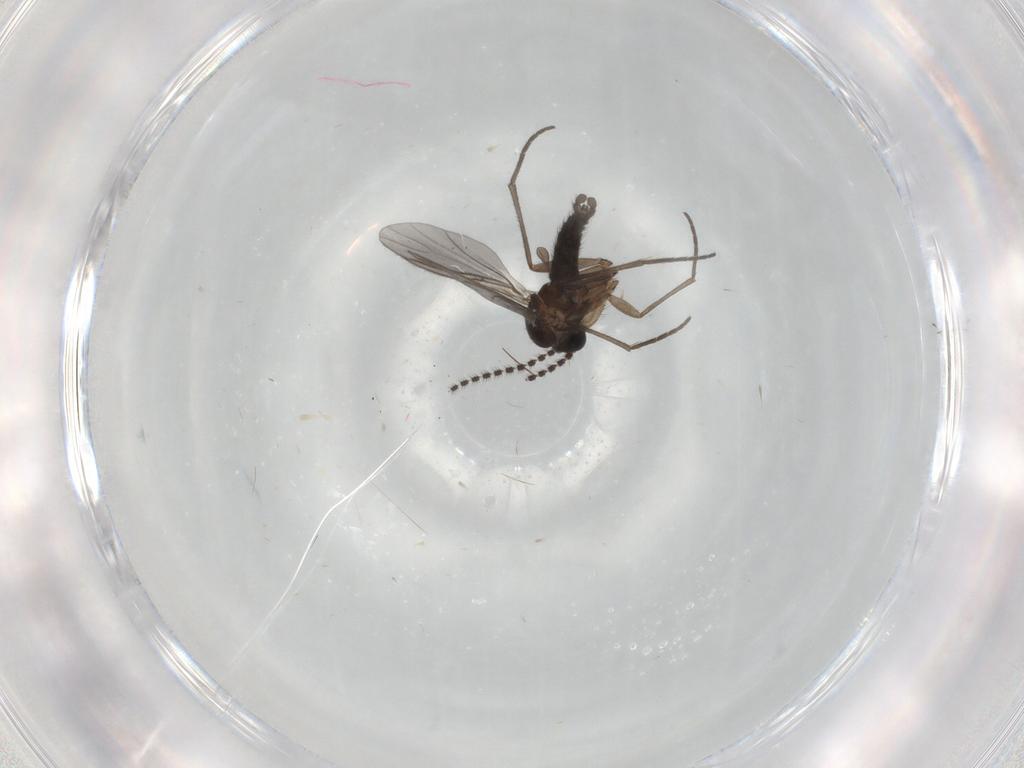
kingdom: Animalia
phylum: Arthropoda
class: Insecta
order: Diptera
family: Sciaridae
